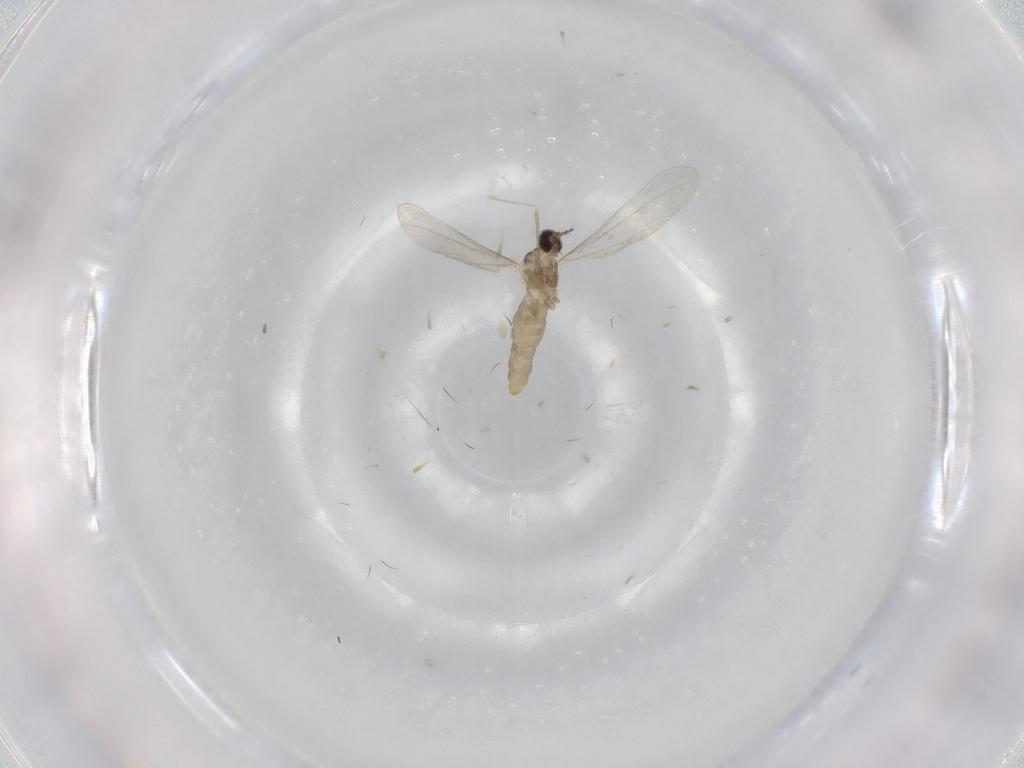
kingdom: Animalia
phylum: Arthropoda
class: Insecta
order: Diptera
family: Cecidomyiidae
